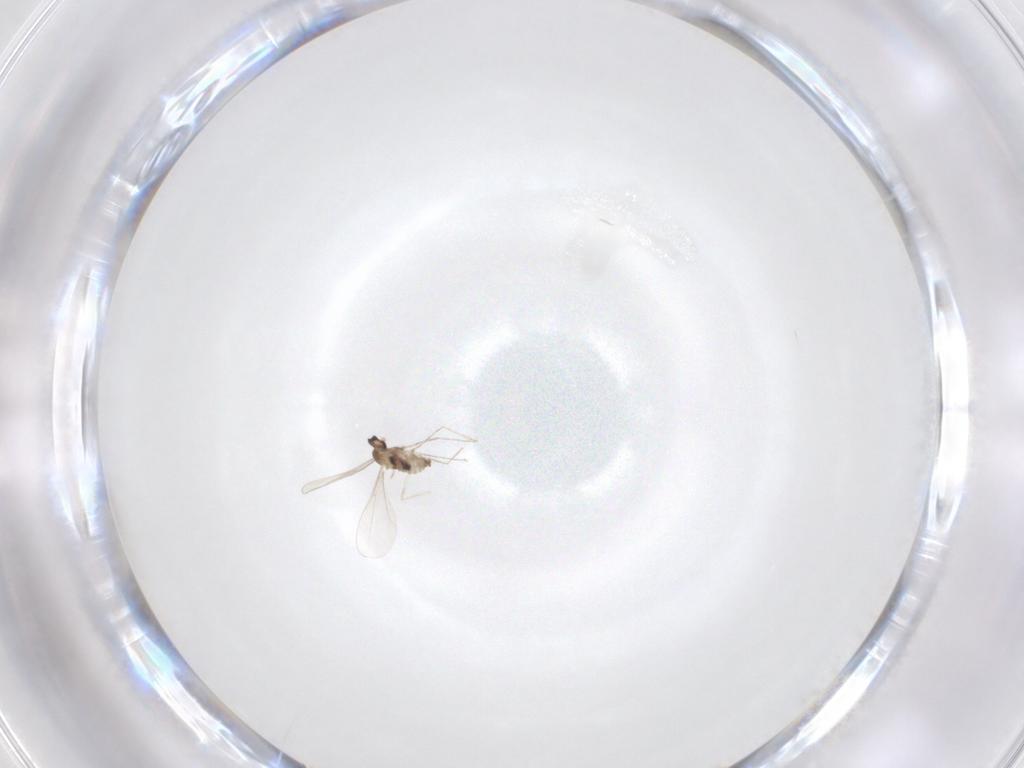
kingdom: Animalia
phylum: Arthropoda
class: Insecta
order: Diptera
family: Cecidomyiidae
